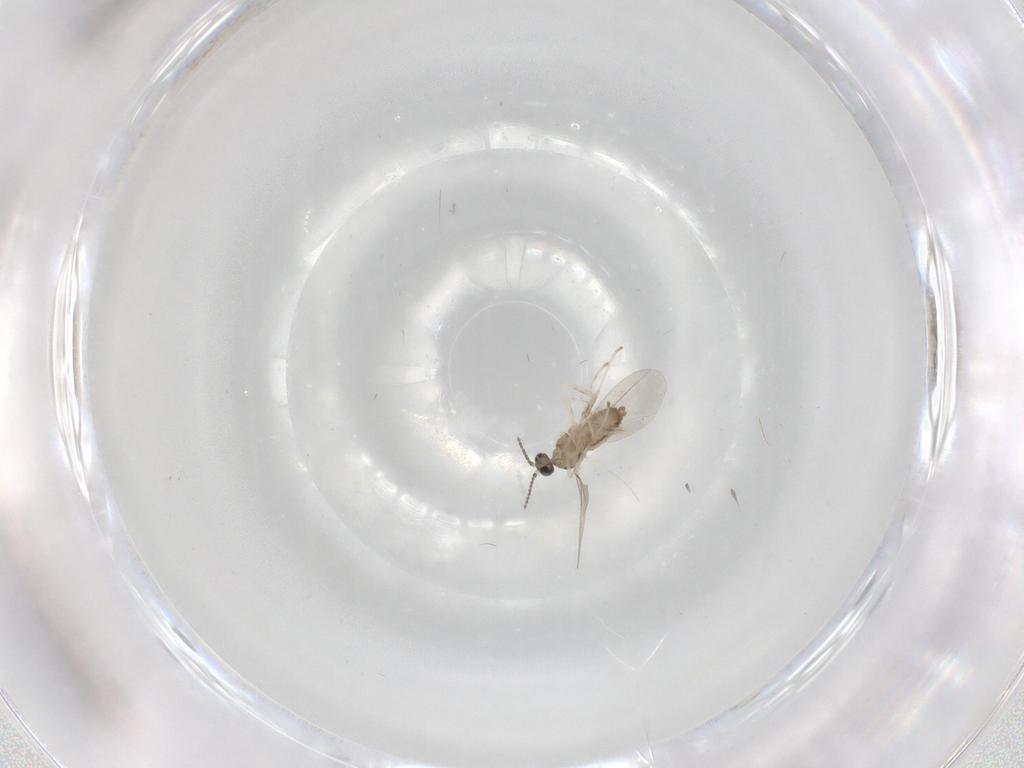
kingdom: Animalia
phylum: Arthropoda
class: Insecta
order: Diptera
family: Cecidomyiidae
